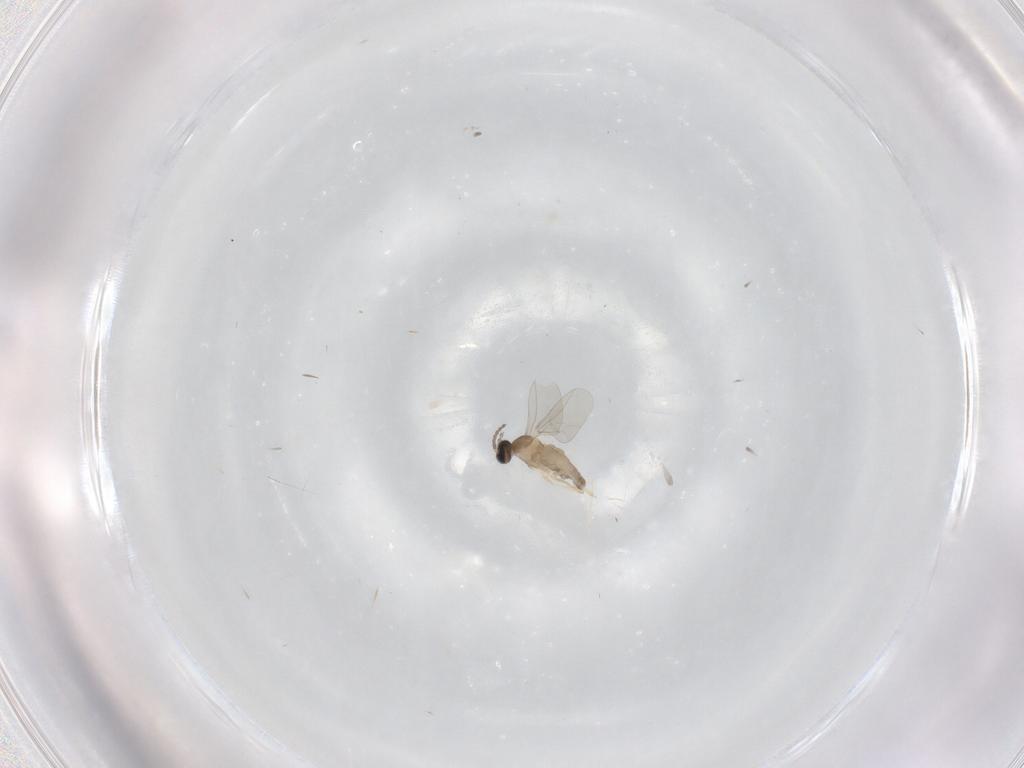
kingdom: Animalia
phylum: Arthropoda
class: Insecta
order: Diptera
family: Cecidomyiidae
